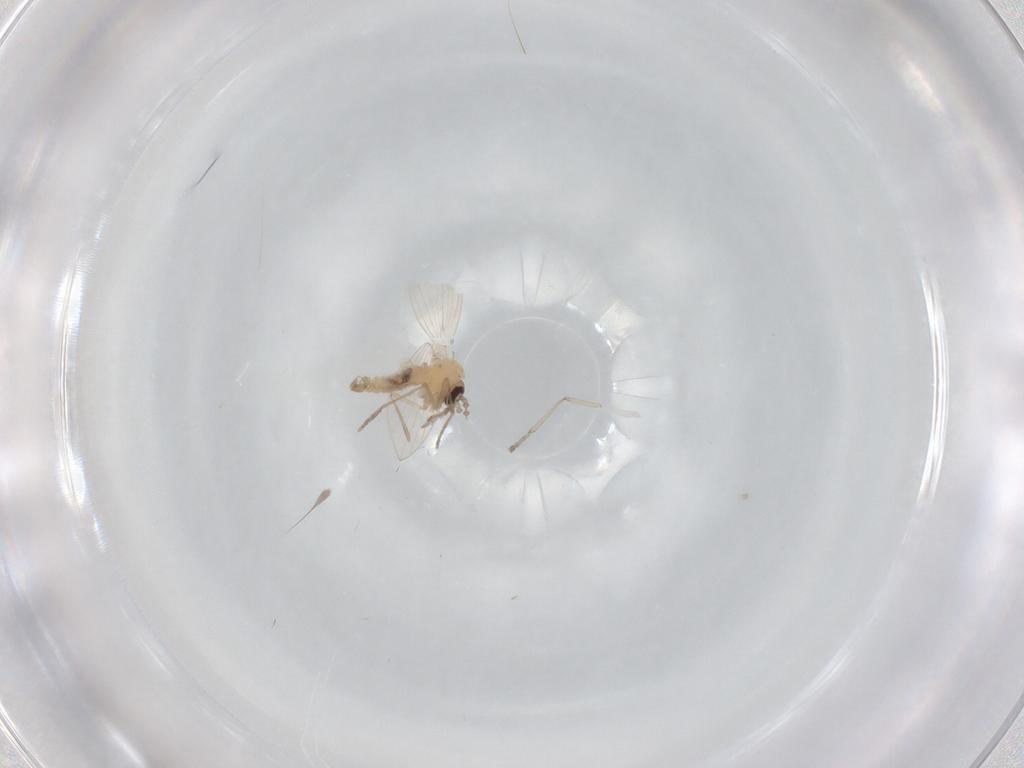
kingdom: Animalia
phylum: Arthropoda
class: Insecta
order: Diptera
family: Psychodidae
